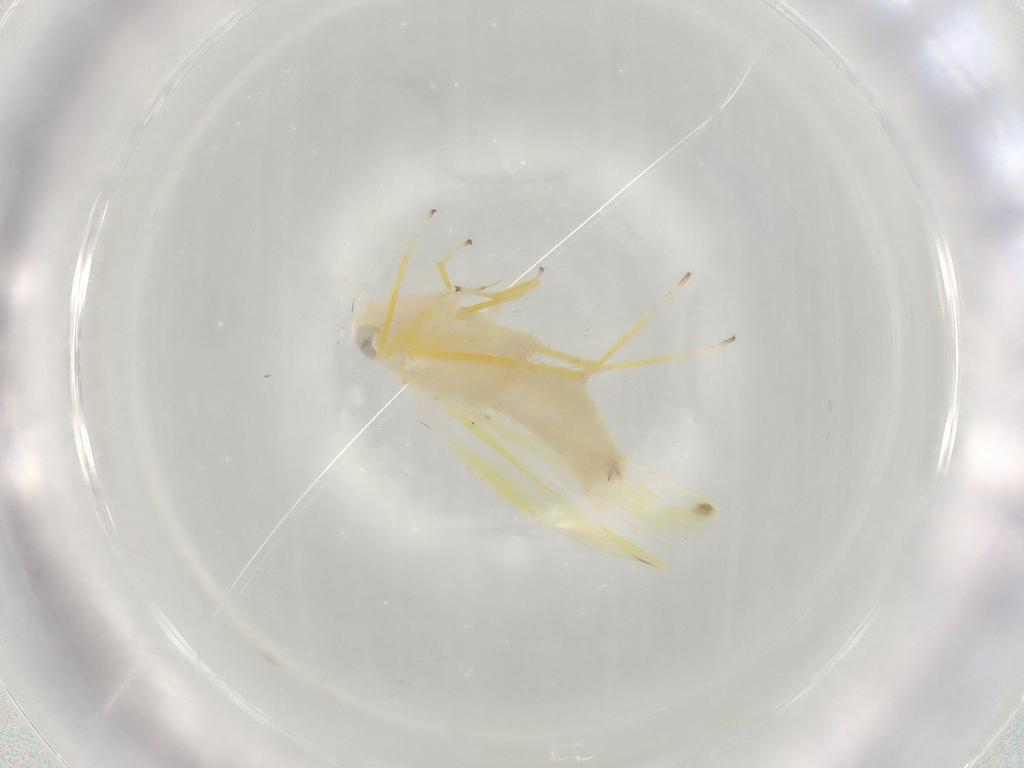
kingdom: Animalia
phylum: Arthropoda
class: Insecta
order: Hemiptera
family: Cicadellidae
